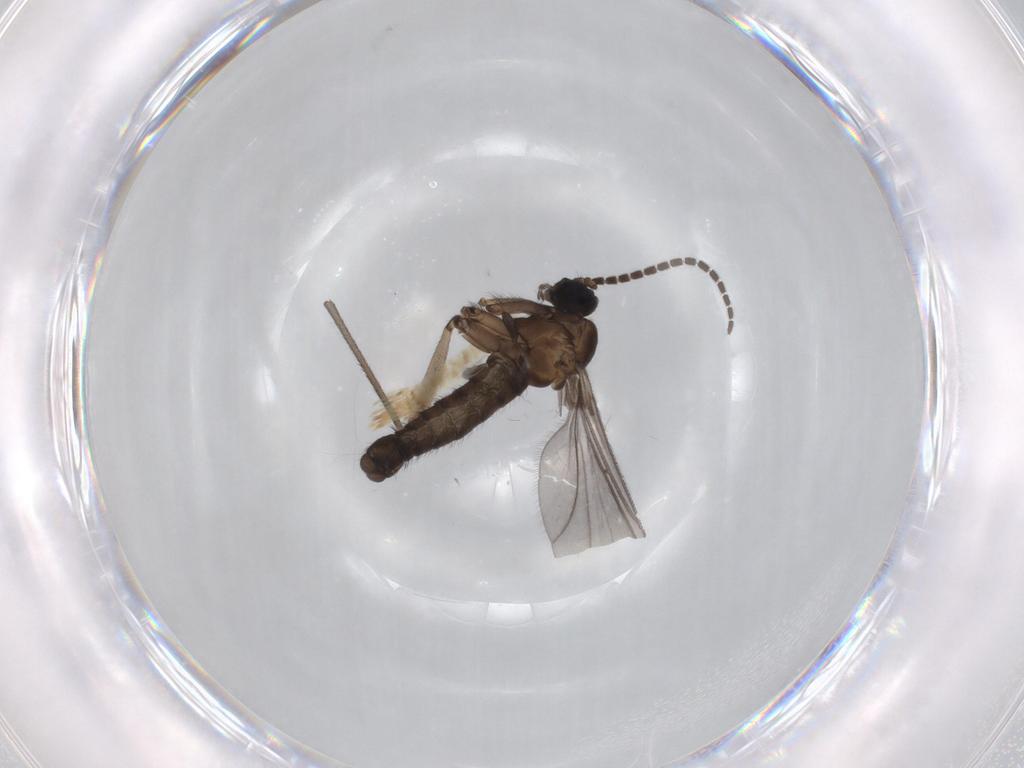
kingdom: Animalia
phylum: Arthropoda
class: Insecta
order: Diptera
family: Sciaridae
